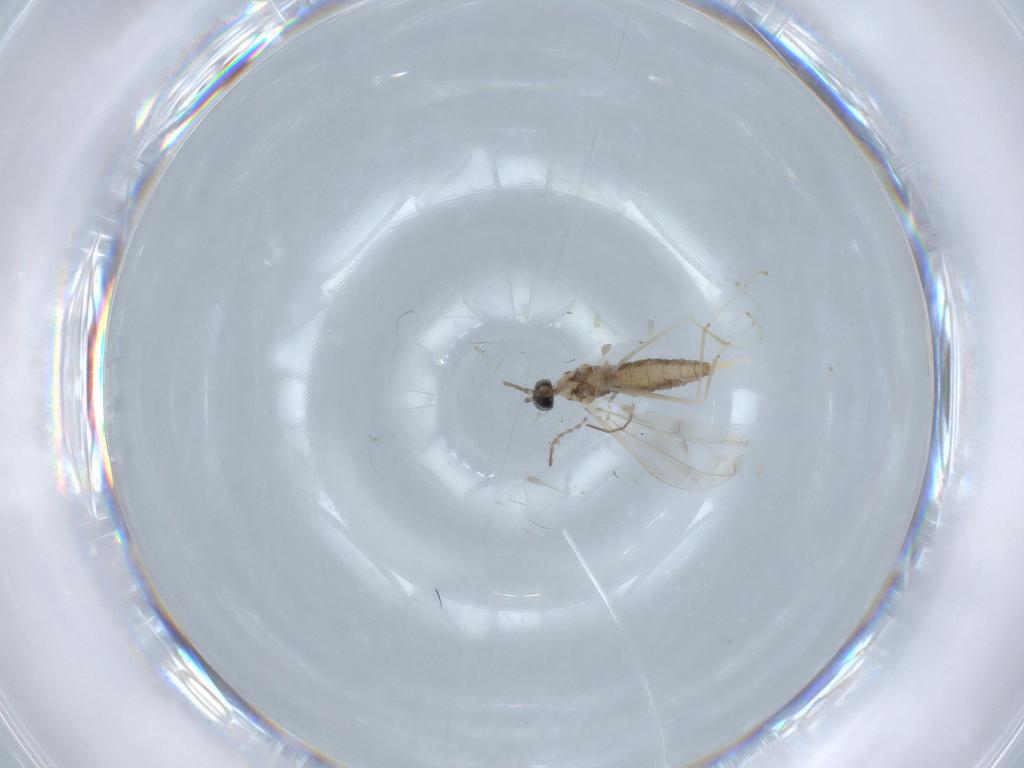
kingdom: Animalia
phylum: Arthropoda
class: Insecta
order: Diptera
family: Cecidomyiidae
